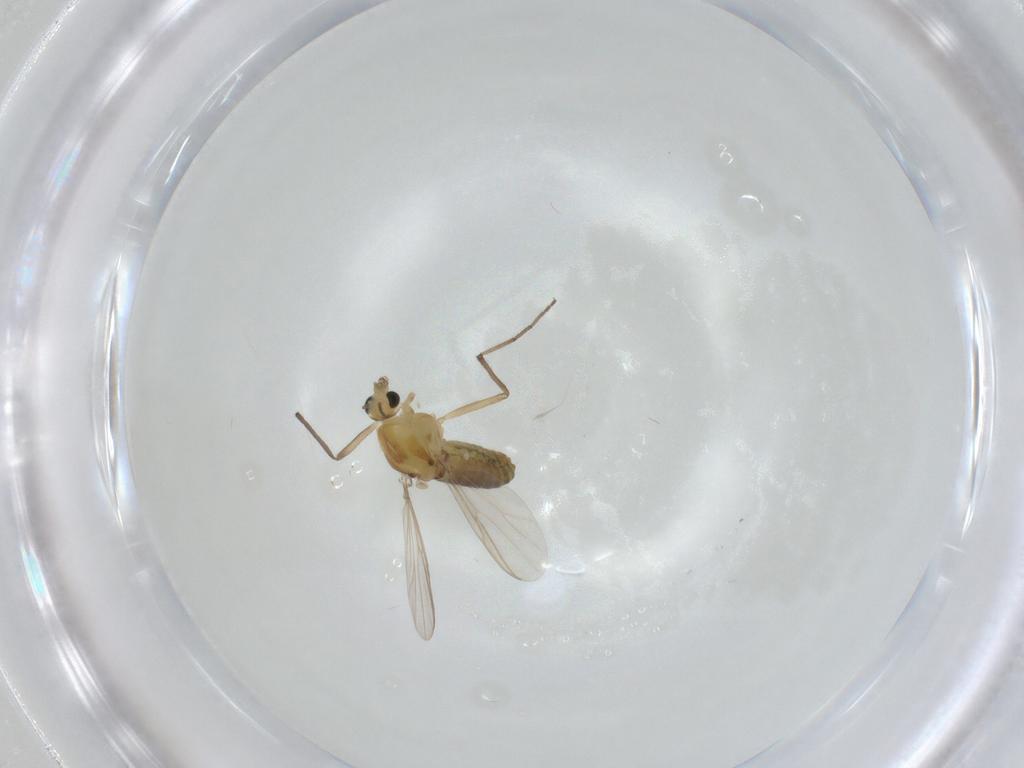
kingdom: Animalia
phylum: Arthropoda
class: Insecta
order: Diptera
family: Chironomidae
